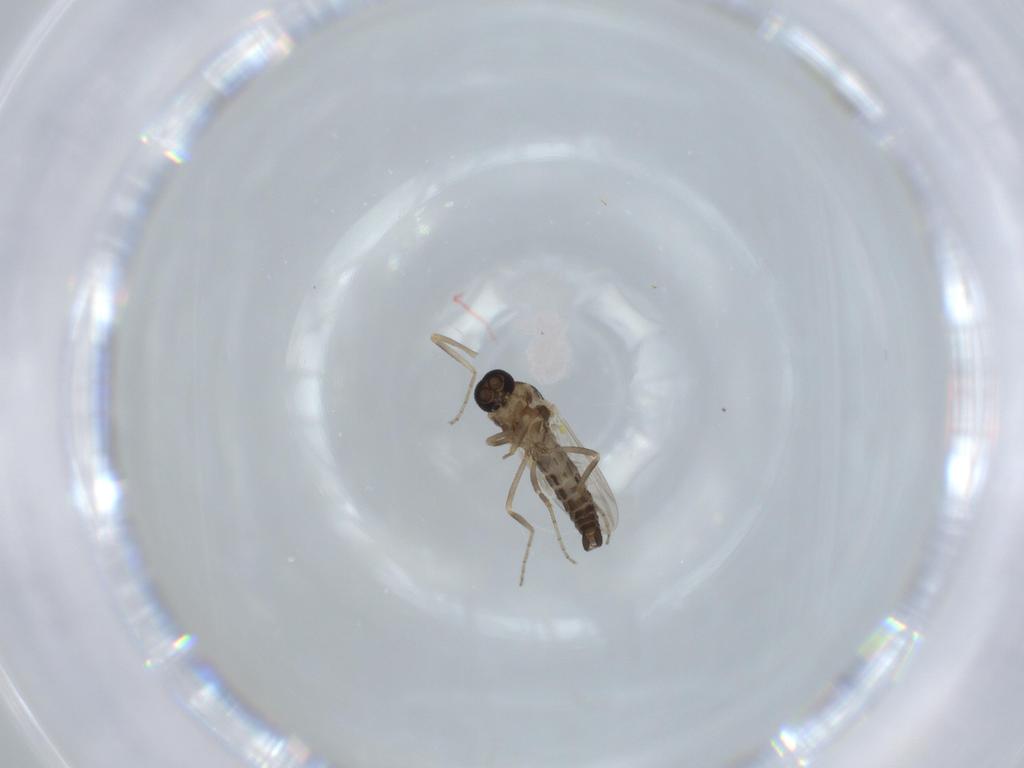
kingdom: Animalia
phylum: Arthropoda
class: Insecta
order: Diptera
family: Ceratopogonidae
